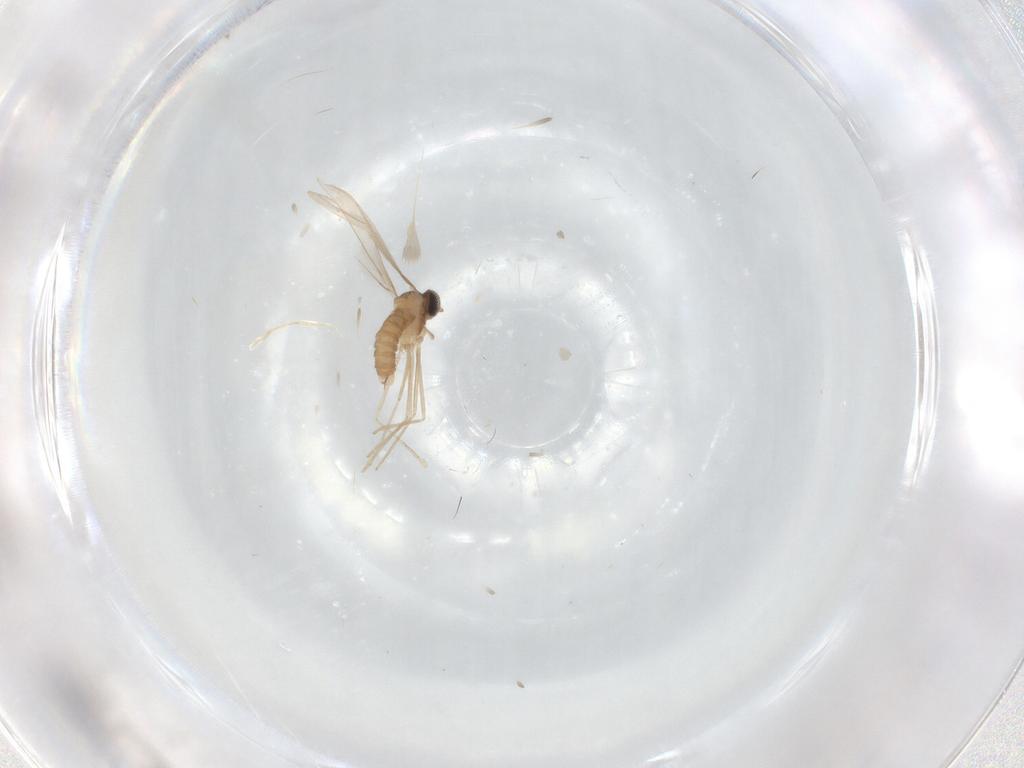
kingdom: Animalia
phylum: Arthropoda
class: Insecta
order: Diptera
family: Cecidomyiidae
